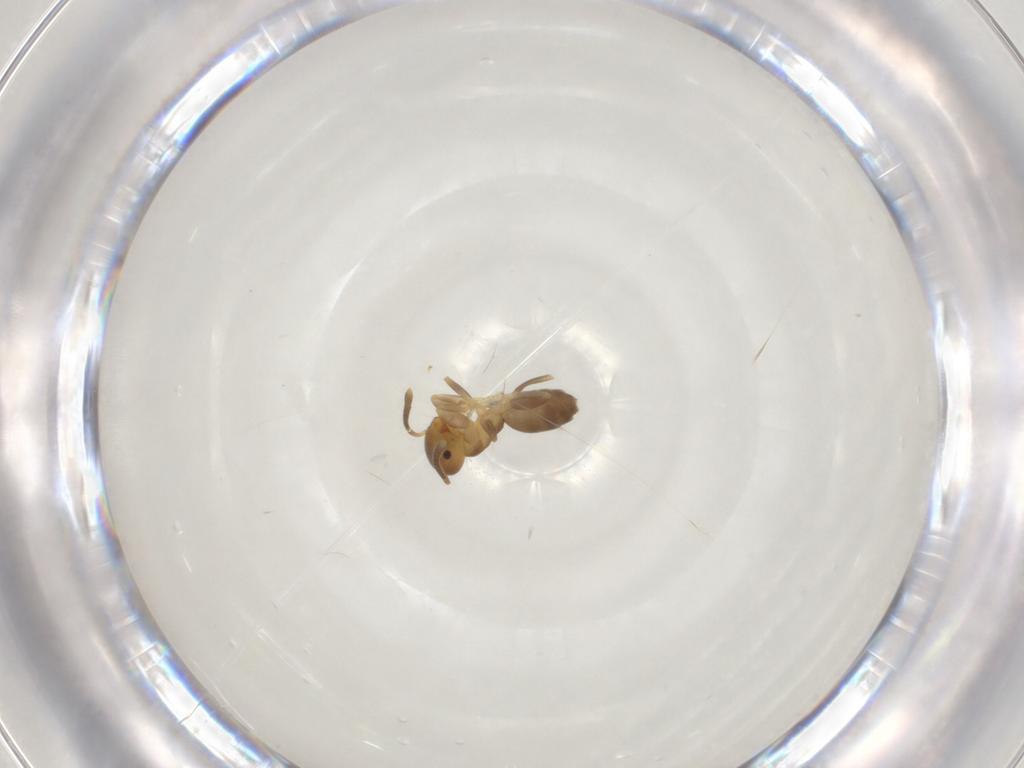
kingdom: Animalia
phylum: Arthropoda
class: Insecta
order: Hymenoptera
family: Formicidae
